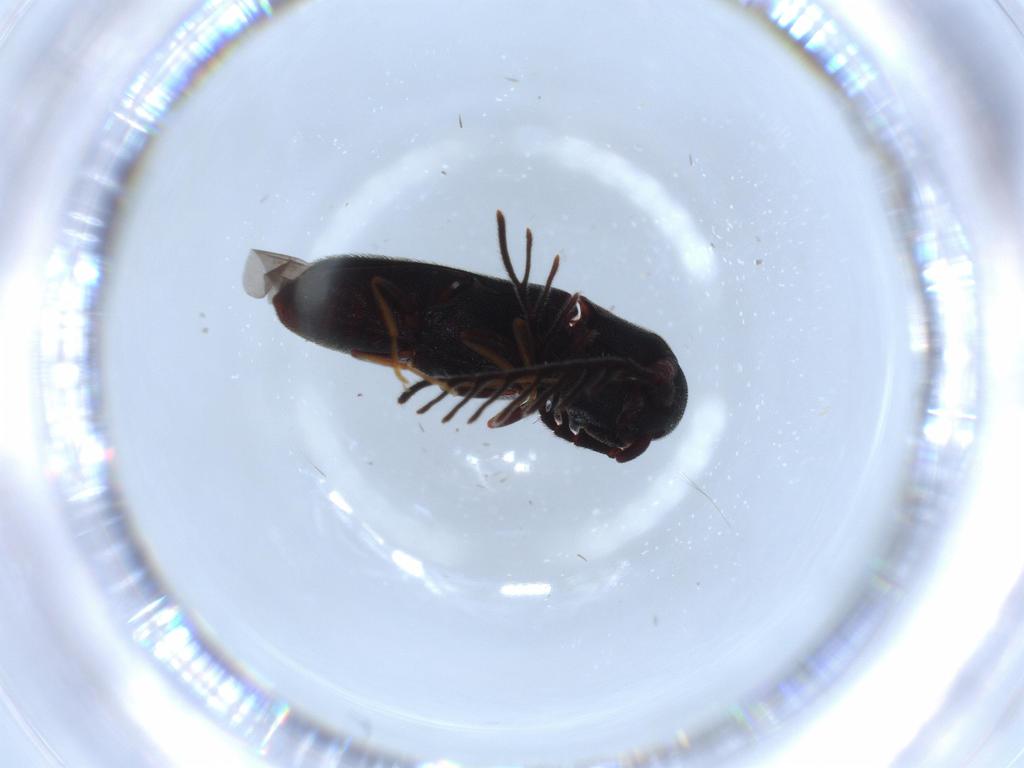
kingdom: Animalia
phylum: Arthropoda
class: Insecta
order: Coleoptera
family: Eucnemidae
